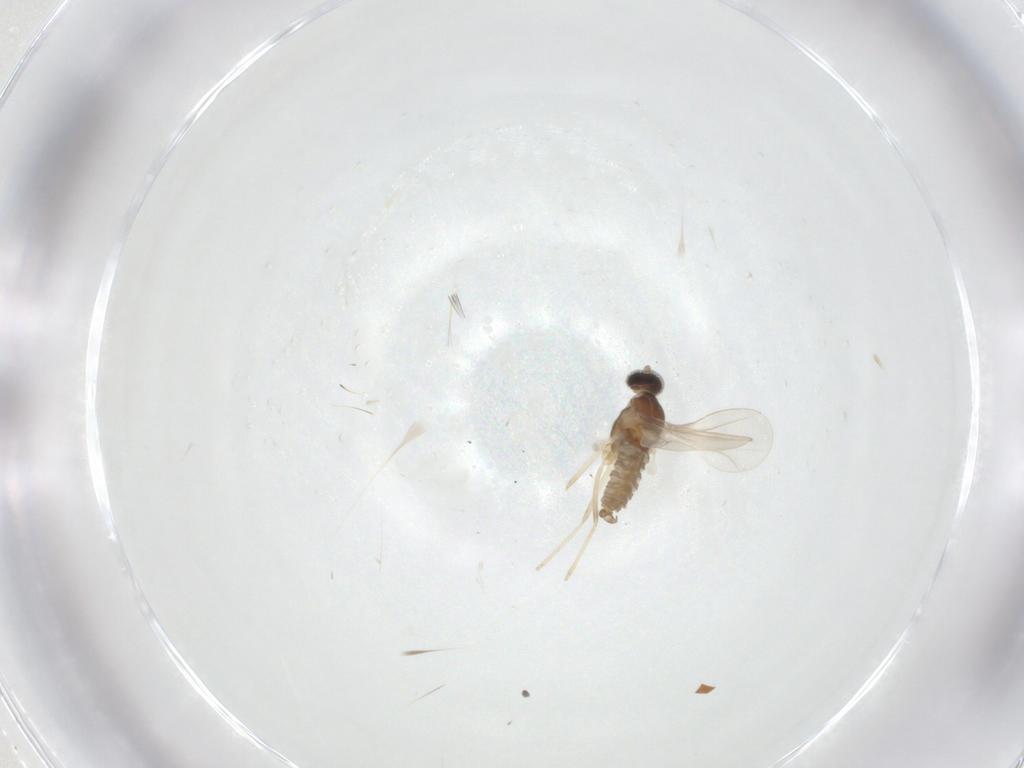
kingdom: Animalia
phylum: Arthropoda
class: Insecta
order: Diptera
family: Cecidomyiidae
